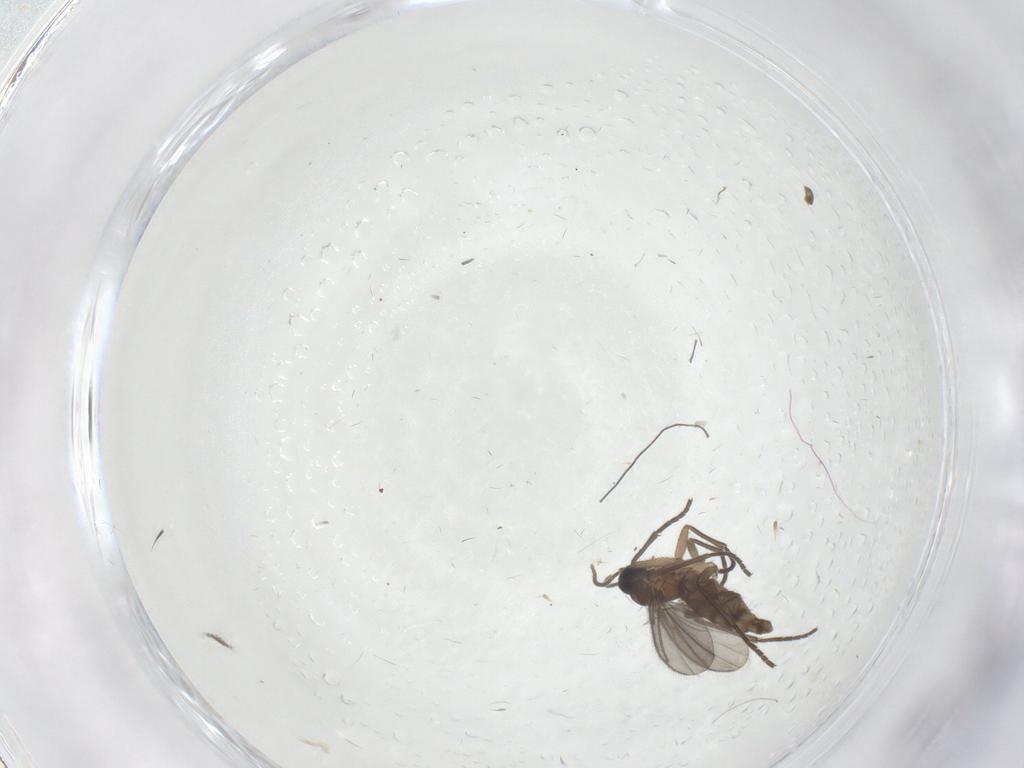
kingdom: Animalia
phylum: Arthropoda
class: Insecta
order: Diptera
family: Sciaridae
